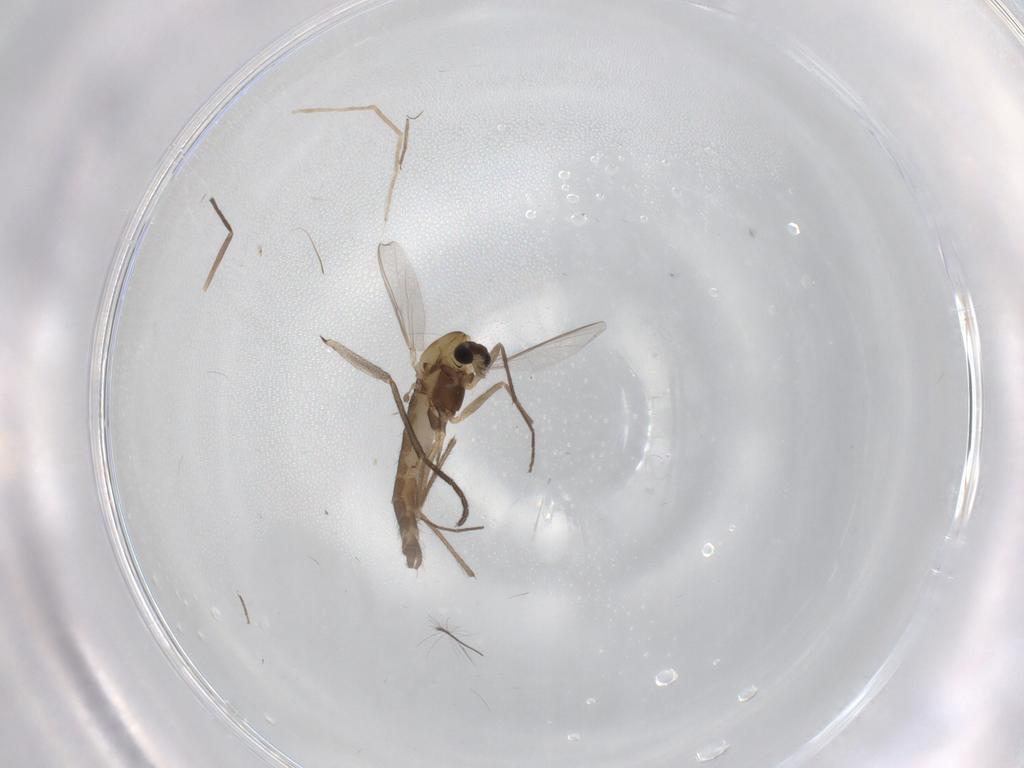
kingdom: Animalia
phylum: Arthropoda
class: Insecta
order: Diptera
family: Chironomidae
